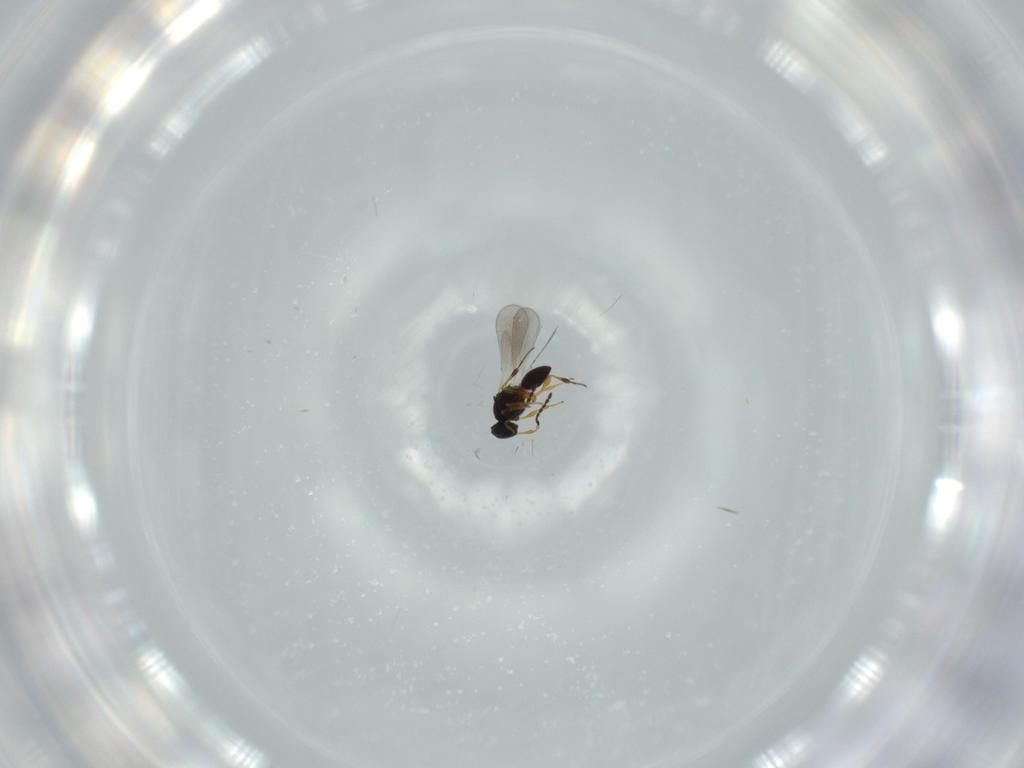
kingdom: Animalia
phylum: Arthropoda
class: Insecta
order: Hymenoptera
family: Platygastridae
